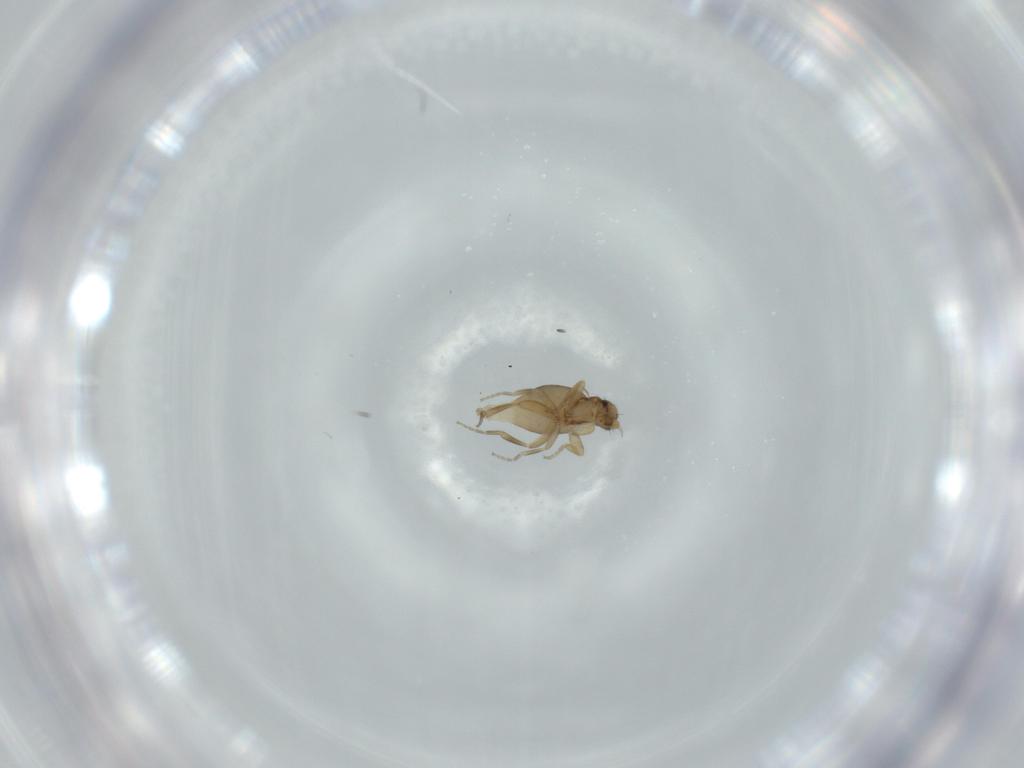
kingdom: Animalia
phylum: Arthropoda
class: Insecta
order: Diptera
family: Phoridae
